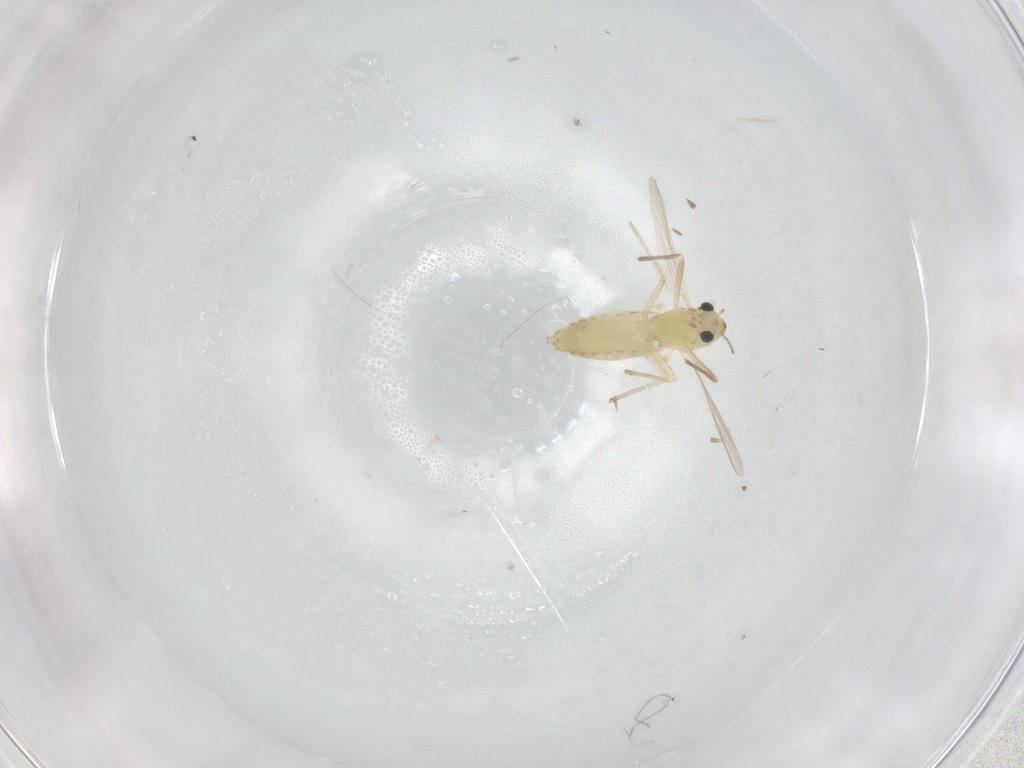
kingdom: Animalia
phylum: Arthropoda
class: Insecta
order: Diptera
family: Chironomidae
